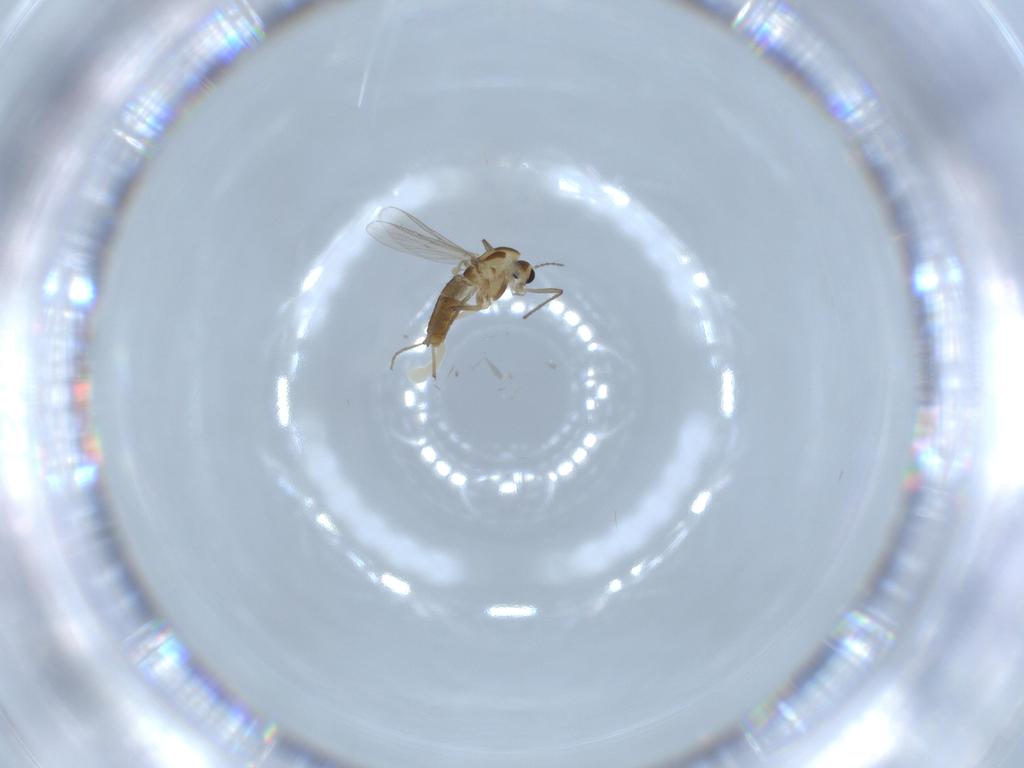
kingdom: Animalia
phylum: Arthropoda
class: Insecta
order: Diptera
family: Chironomidae
